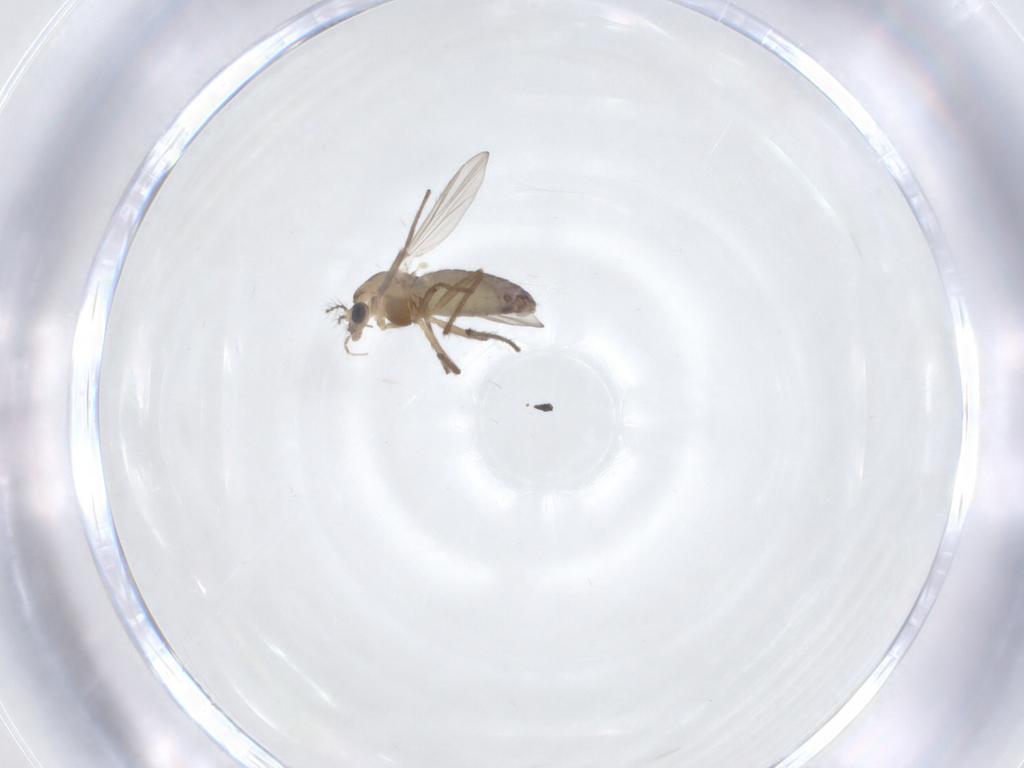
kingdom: Animalia
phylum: Arthropoda
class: Insecta
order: Diptera
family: Chironomidae
